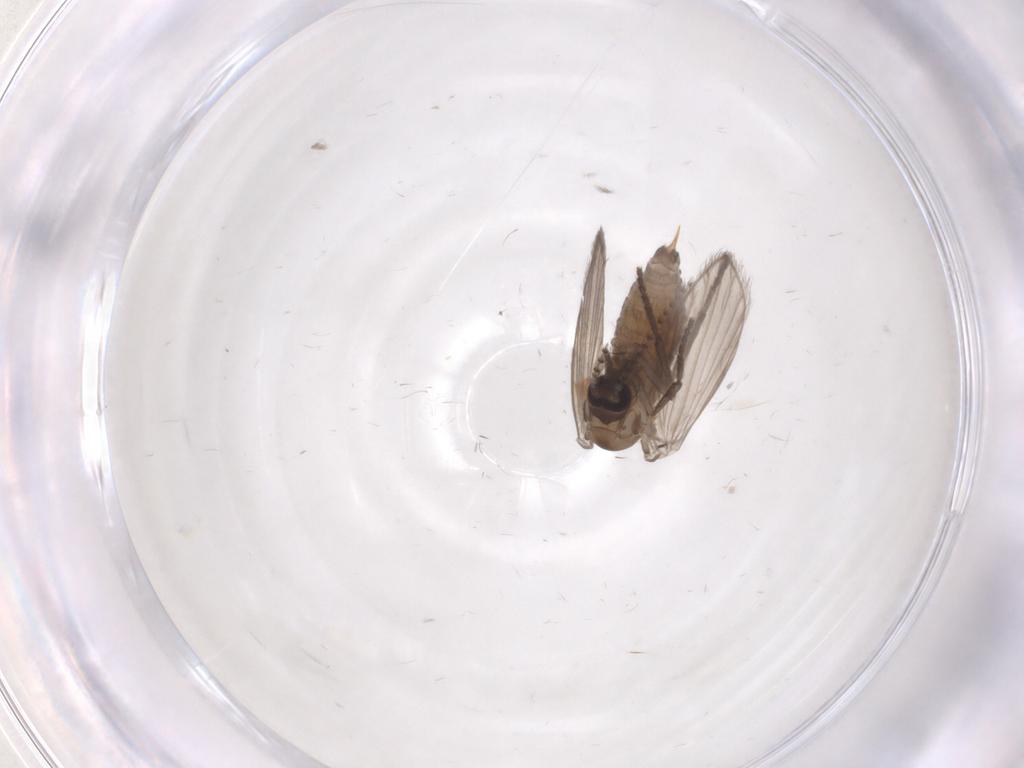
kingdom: Animalia
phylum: Arthropoda
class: Insecta
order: Diptera
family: Psychodidae
